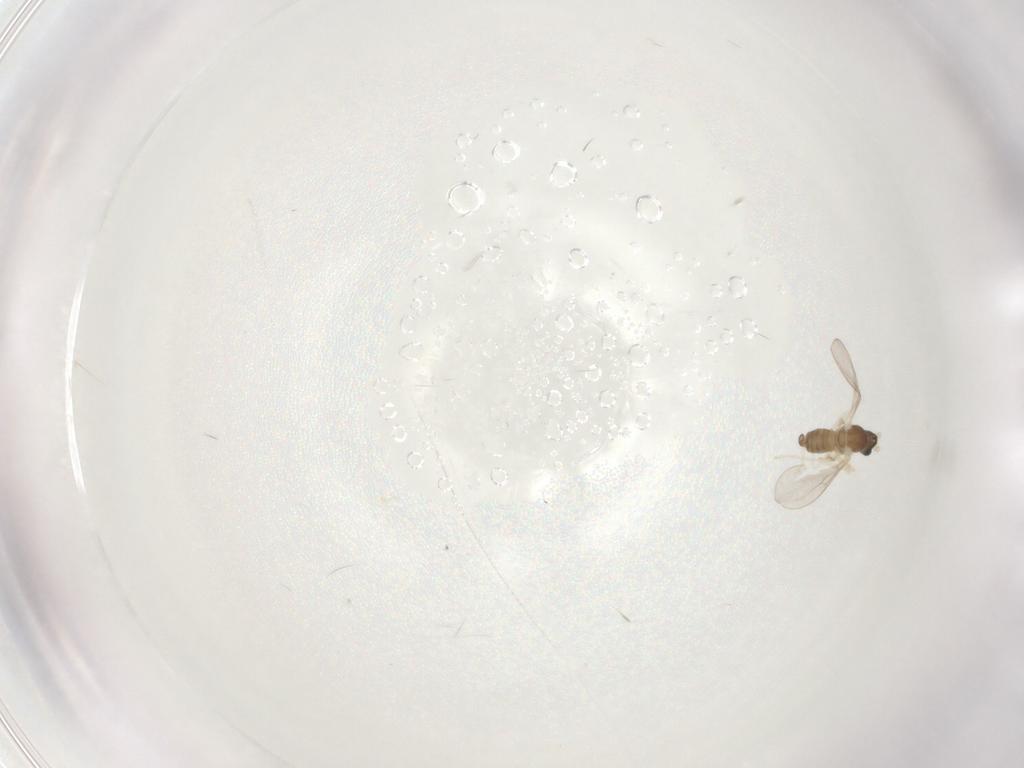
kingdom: Animalia
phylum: Arthropoda
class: Insecta
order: Diptera
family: Cecidomyiidae
